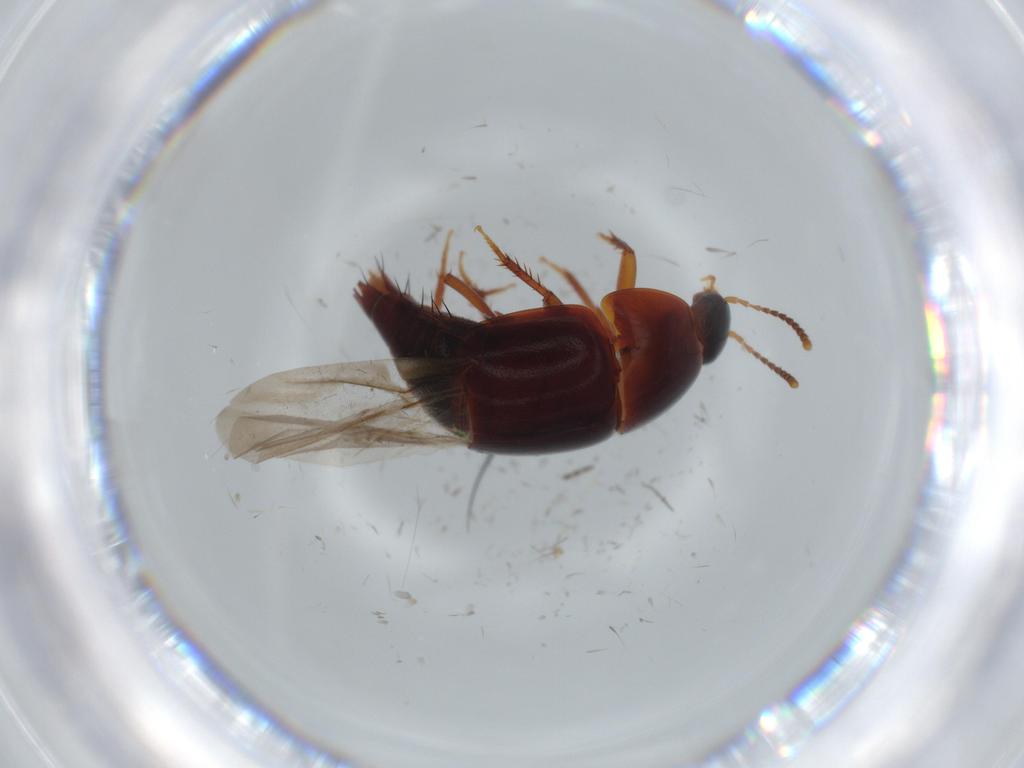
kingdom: Animalia
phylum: Arthropoda
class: Insecta
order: Coleoptera
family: Staphylinidae
